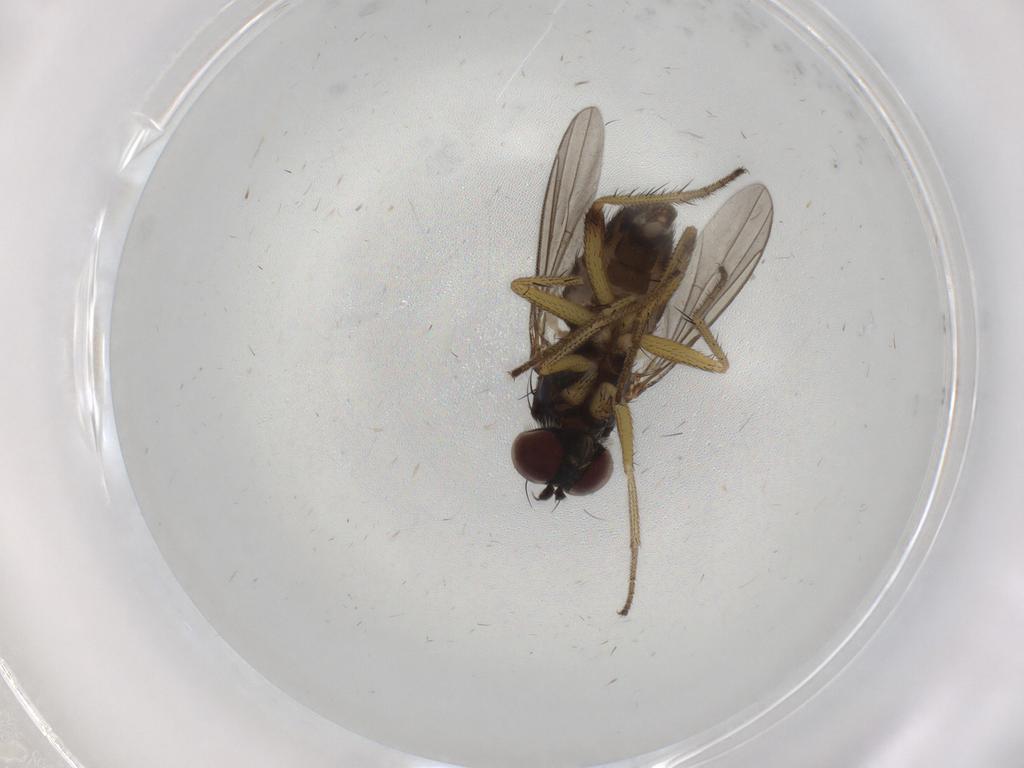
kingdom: Animalia
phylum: Arthropoda
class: Insecta
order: Diptera
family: Dolichopodidae
